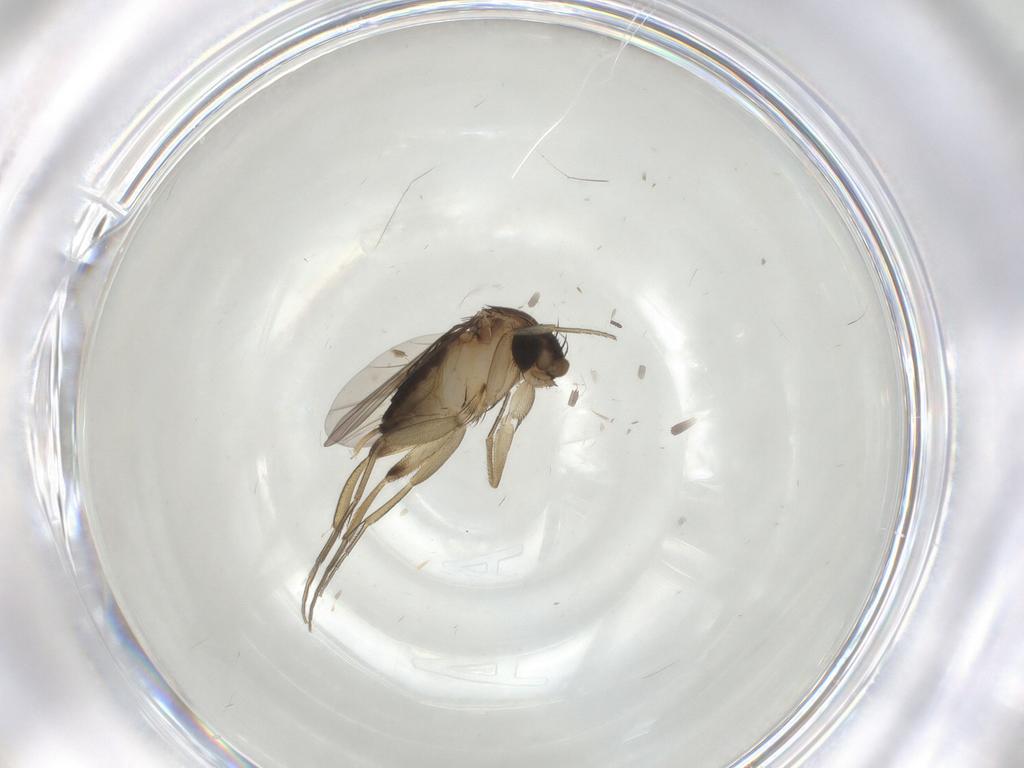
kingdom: Animalia
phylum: Arthropoda
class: Insecta
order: Diptera
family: Phoridae
